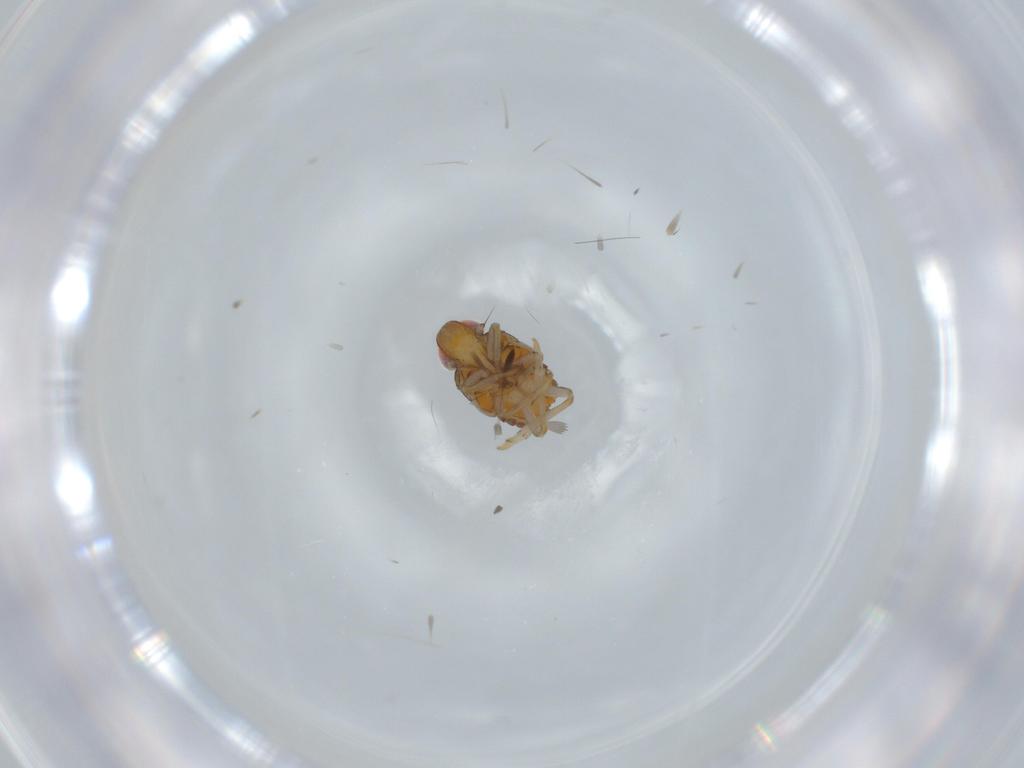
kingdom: Animalia
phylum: Arthropoda
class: Insecta
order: Hemiptera
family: Issidae
